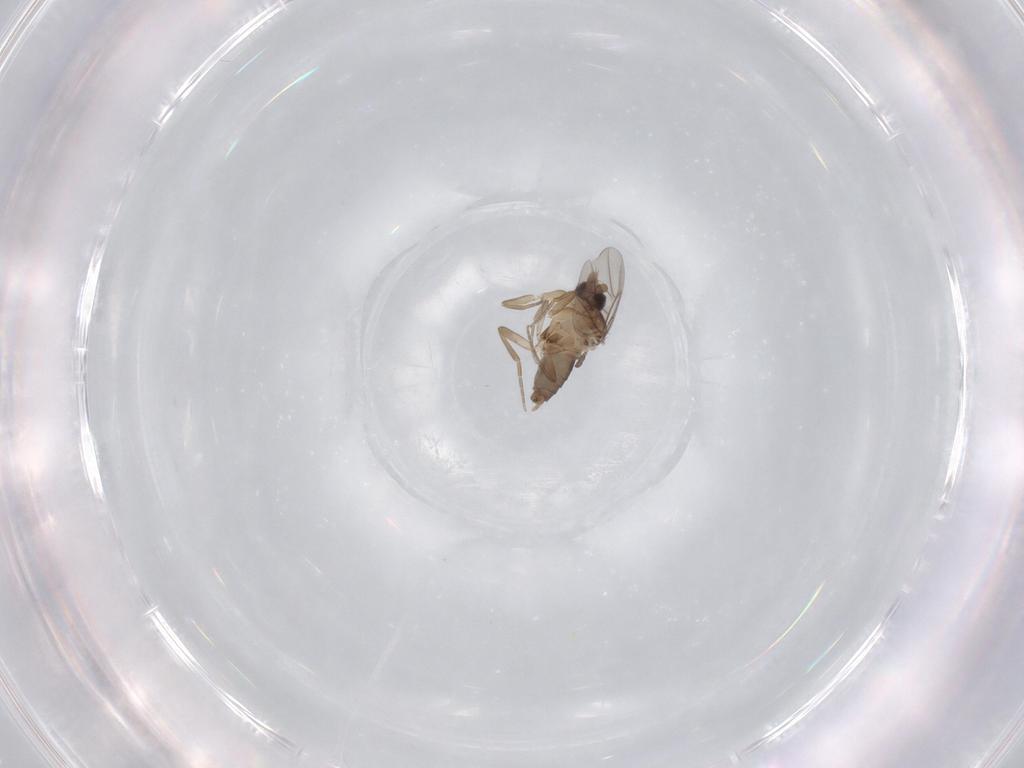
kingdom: Animalia
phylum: Arthropoda
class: Insecta
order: Diptera
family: Phoridae
